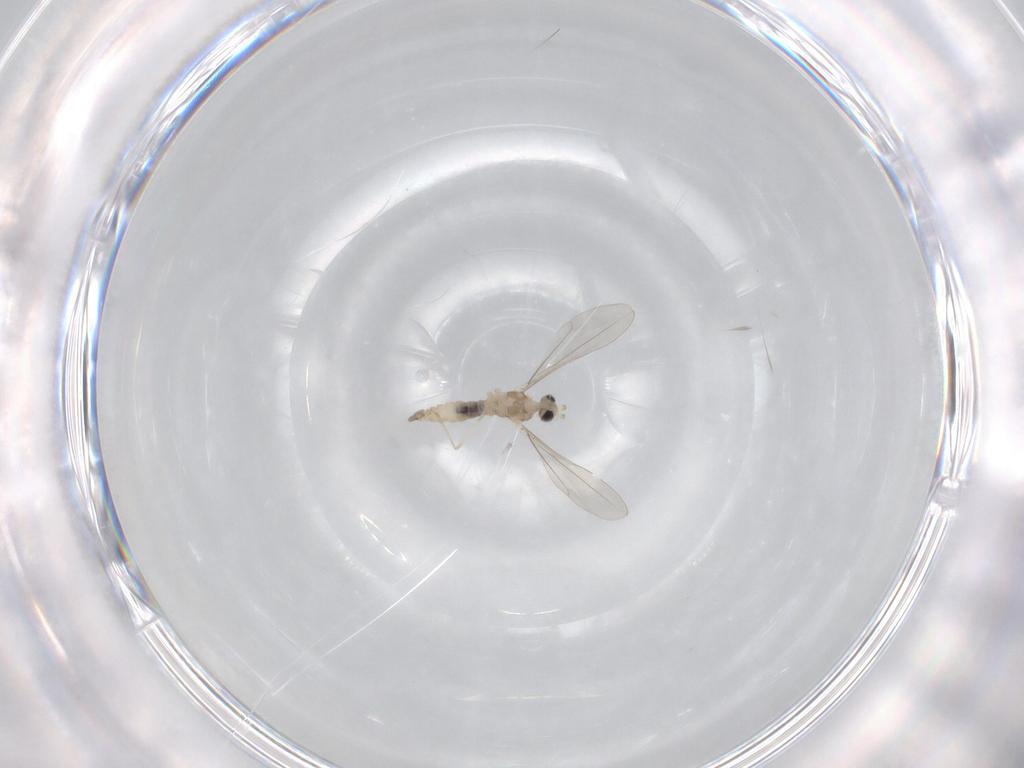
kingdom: Animalia
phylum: Arthropoda
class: Insecta
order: Diptera
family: Cecidomyiidae
